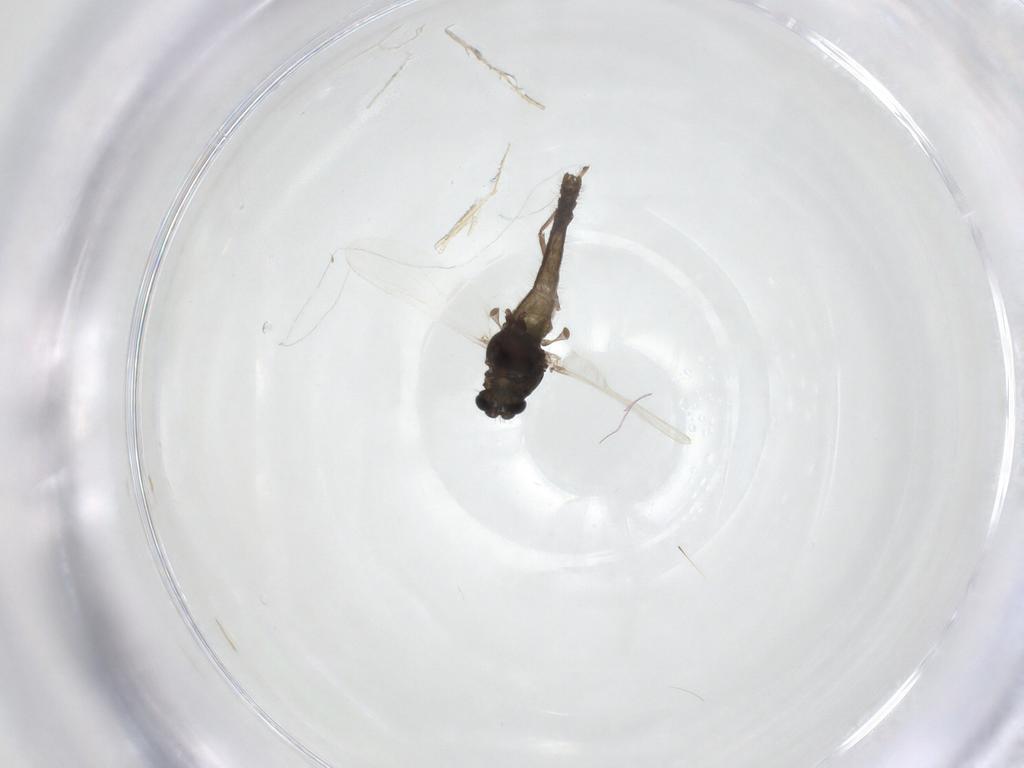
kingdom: Animalia
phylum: Arthropoda
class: Insecta
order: Diptera
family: Chironomidae
